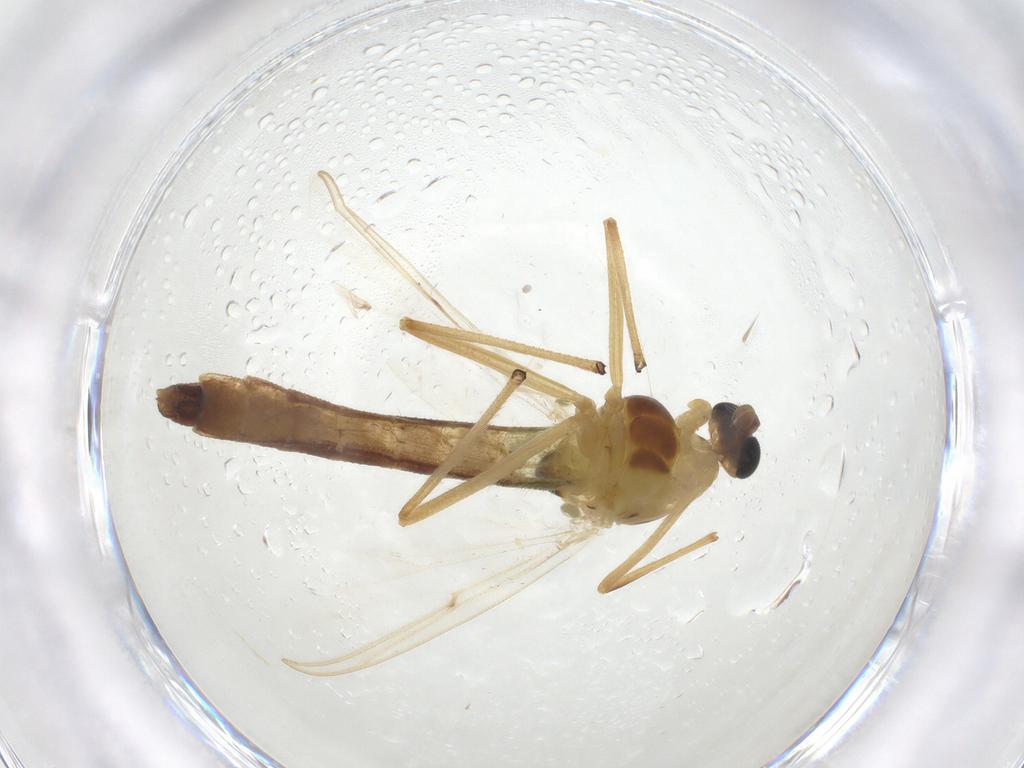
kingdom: Animalia
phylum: Arthropoda
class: Insecta
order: Diptera
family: Chironomidae
